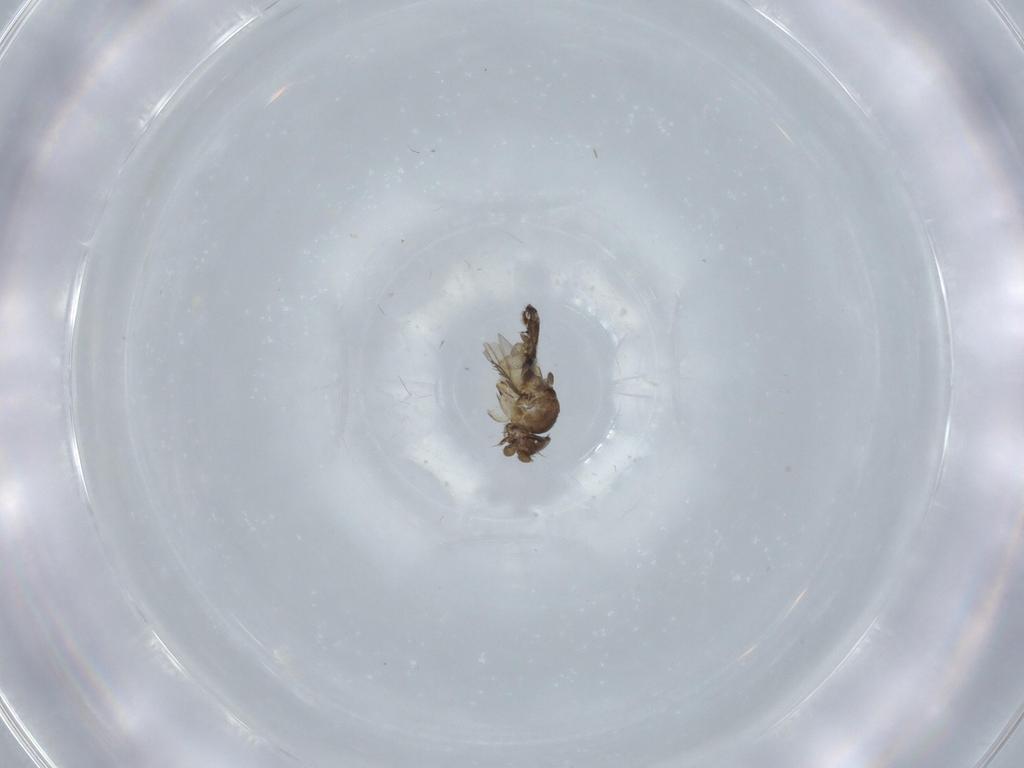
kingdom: Animalia
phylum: Arthropoda
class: Insecta
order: Diptera
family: Phoridae
